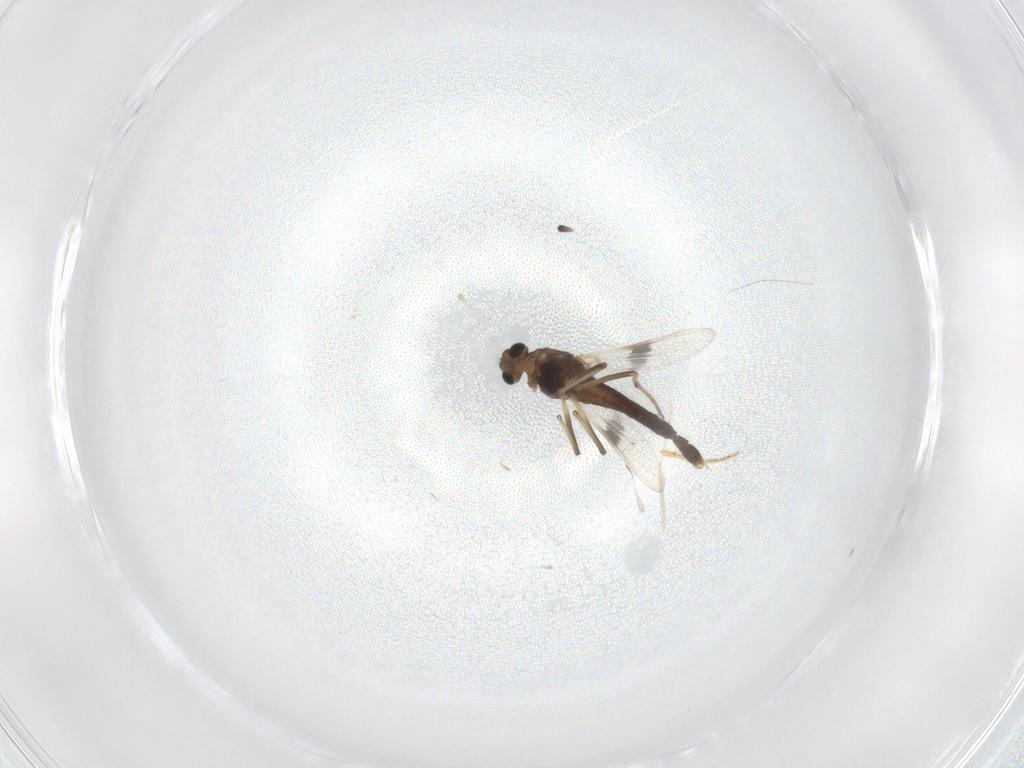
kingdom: Animalia
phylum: Arthropoda
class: Insecta
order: Diptera
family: Chironomidae
